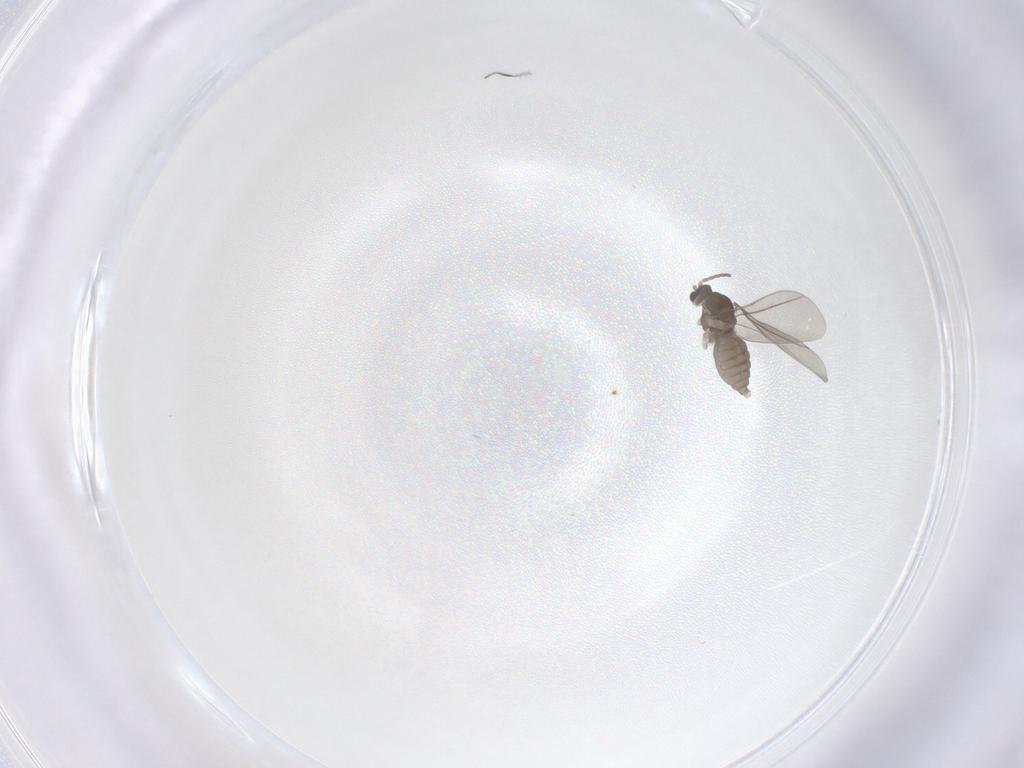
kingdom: Animalia
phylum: Arthropoda
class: Insecta
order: Diptera
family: Cecidomyiidae
